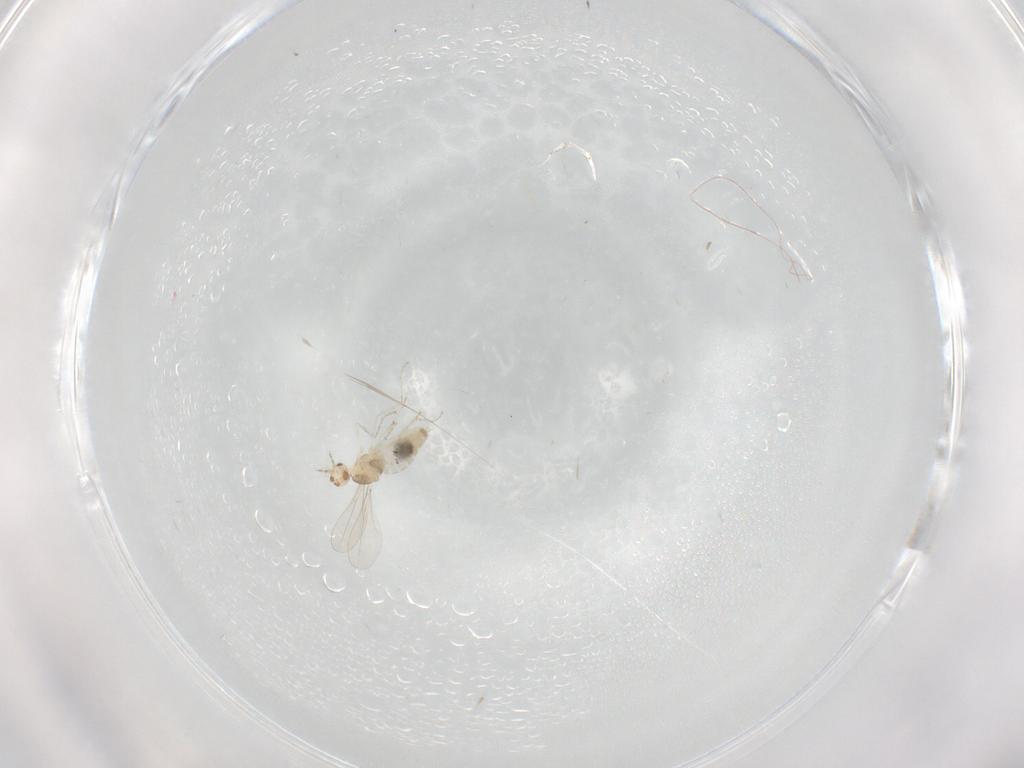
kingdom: Animalia
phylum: Arthropoda
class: Insecta
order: Diptera
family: Cecidomyiidae
